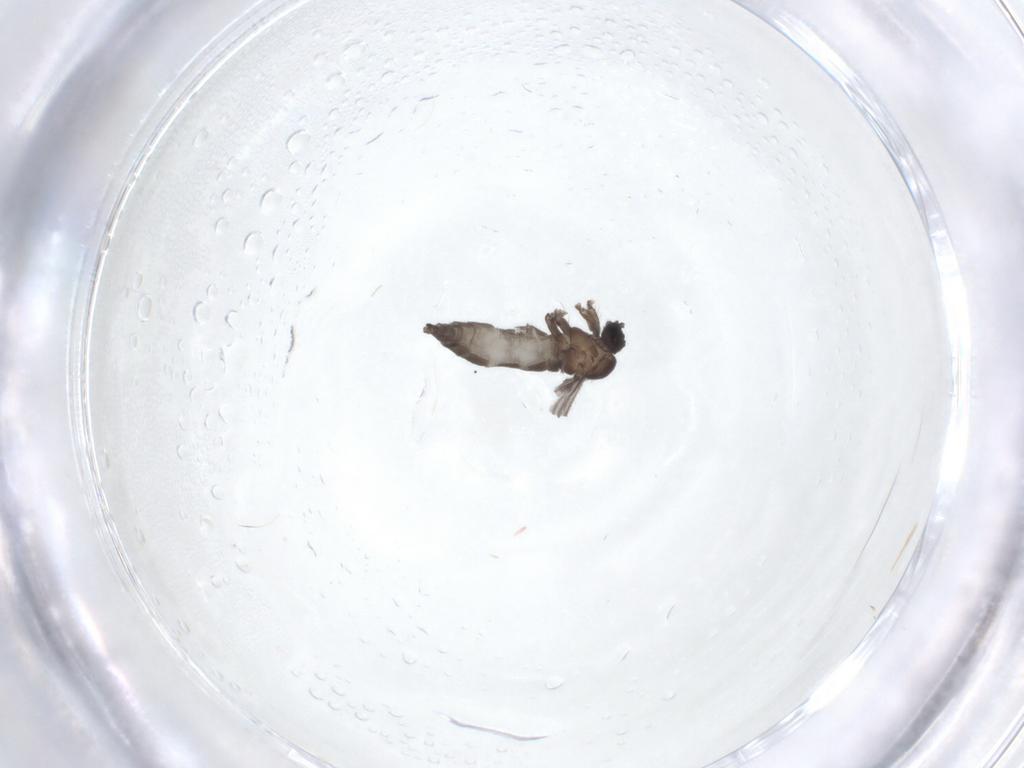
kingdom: Animalia
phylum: Arthropoda
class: Insecta
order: Diptera
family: Sciaridae
